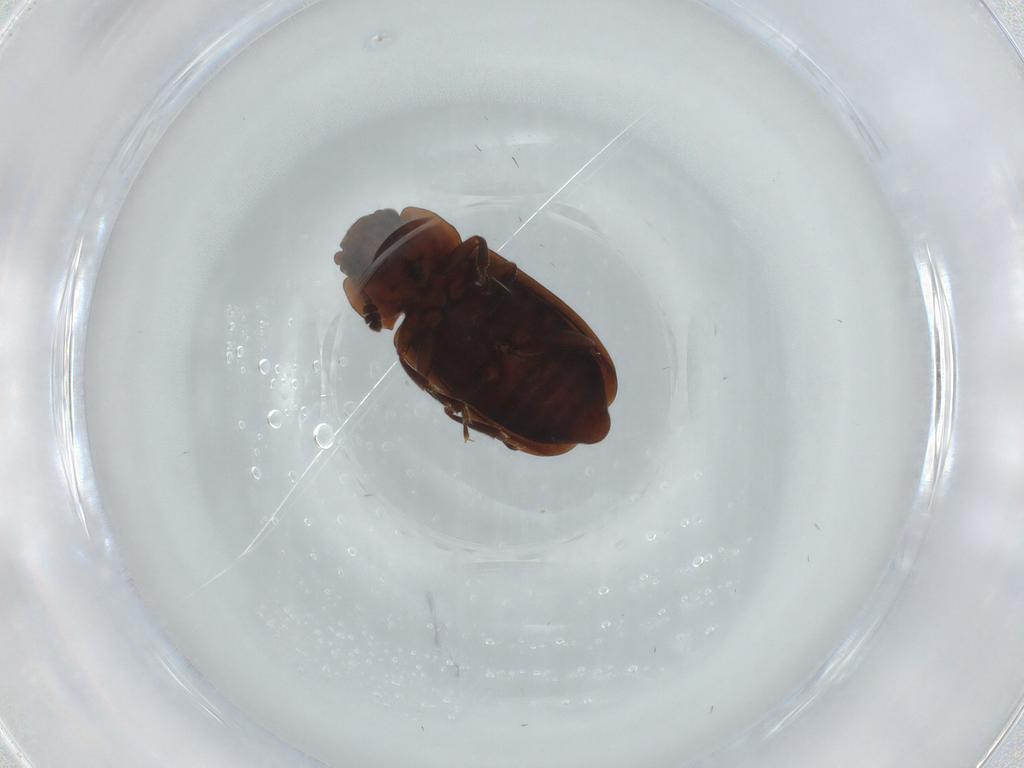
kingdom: Animalia
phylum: Arthropoda
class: Insecta
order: Coleoptera
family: Nitidulidae
